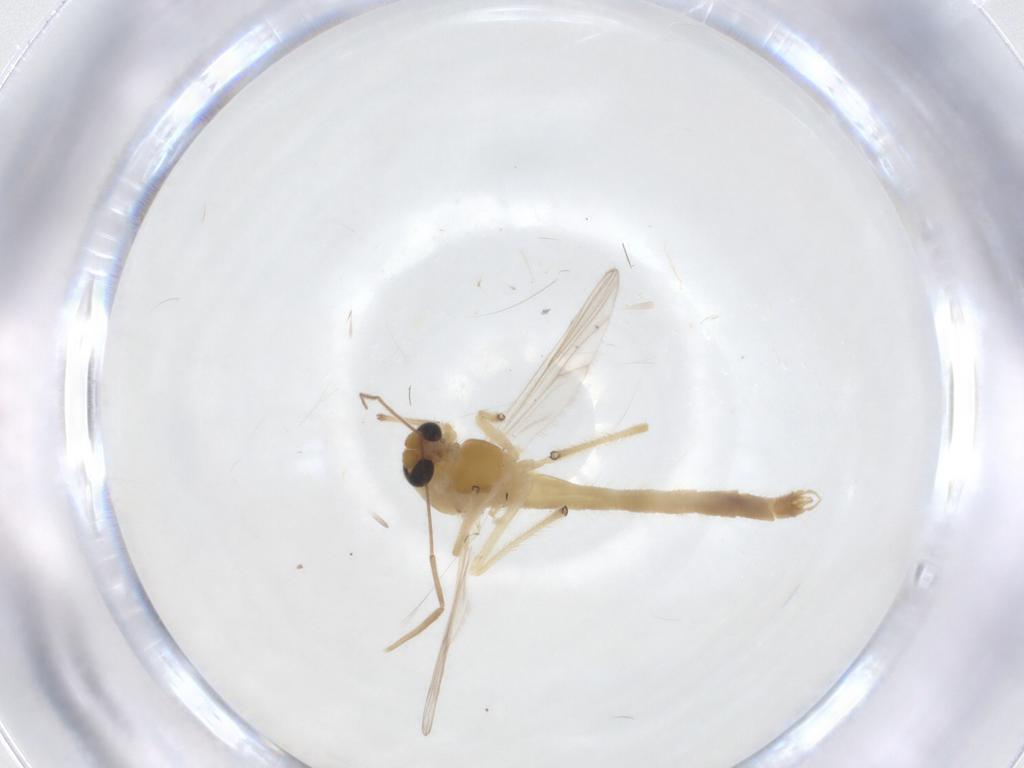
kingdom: Animalia
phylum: Arthropoda
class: Insecta
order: Diptera
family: Chironomidae
